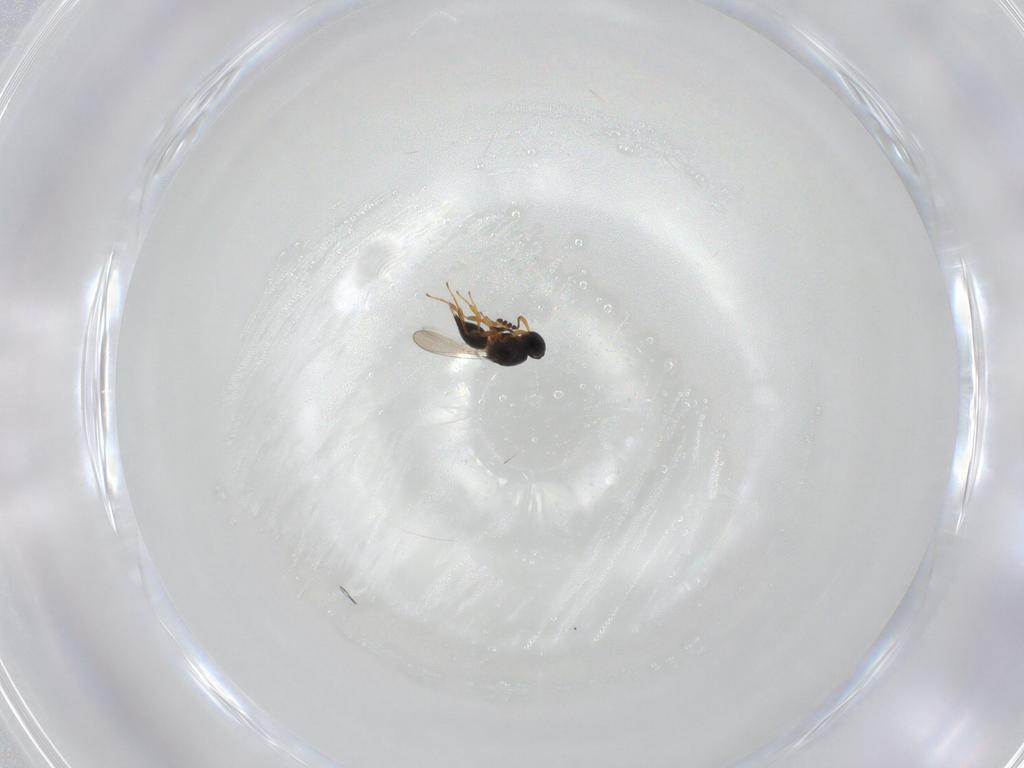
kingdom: Animalia
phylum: Arthropoda
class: Insecta
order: Hymenoptera
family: Platygastridae
